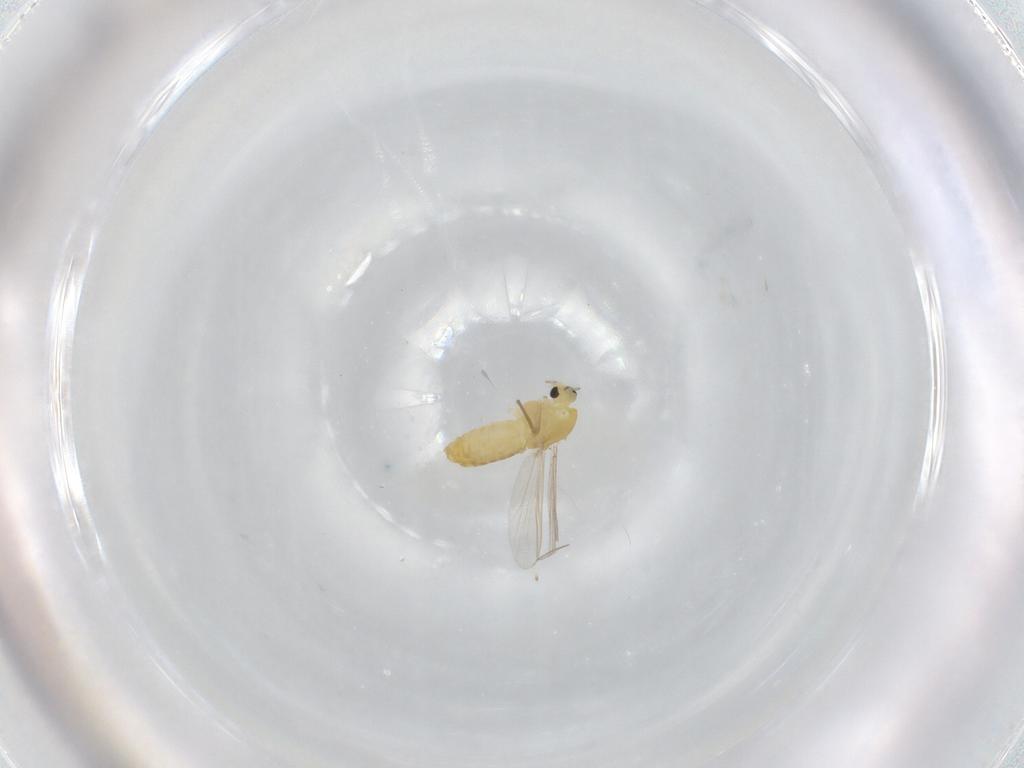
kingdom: Animalia
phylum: Arthropoda
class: Insecta
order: Diptera
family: Chironomidae
